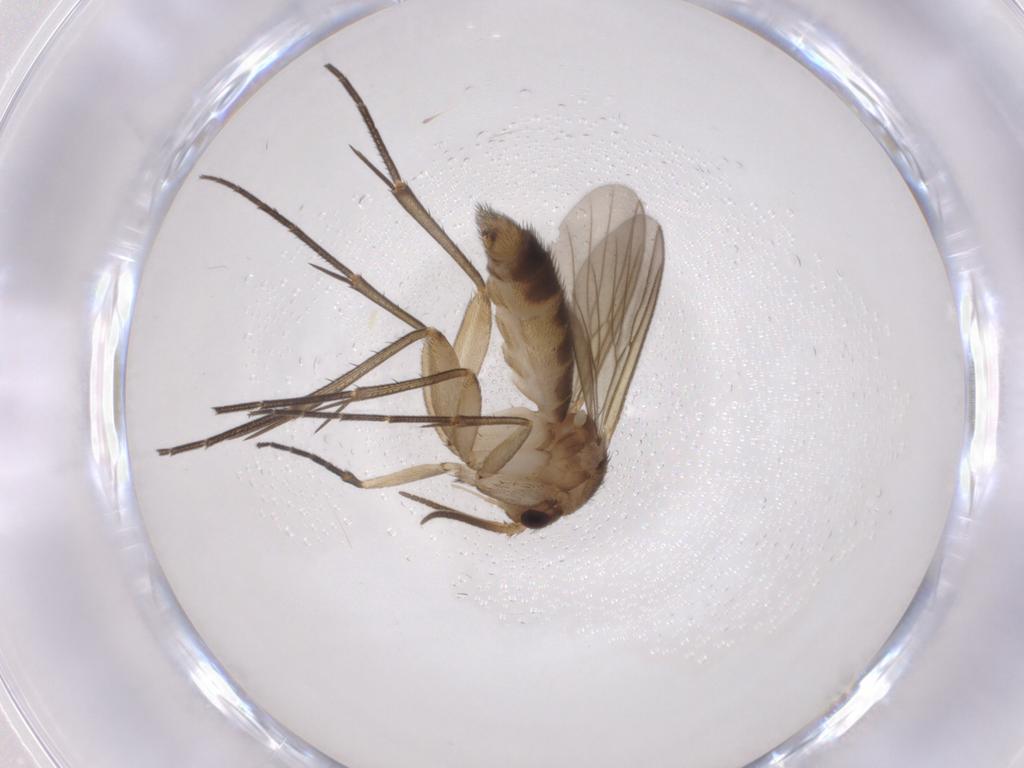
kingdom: Animalia
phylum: Arthropoda
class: Insecta
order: Diptera
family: Mycetophilidae
